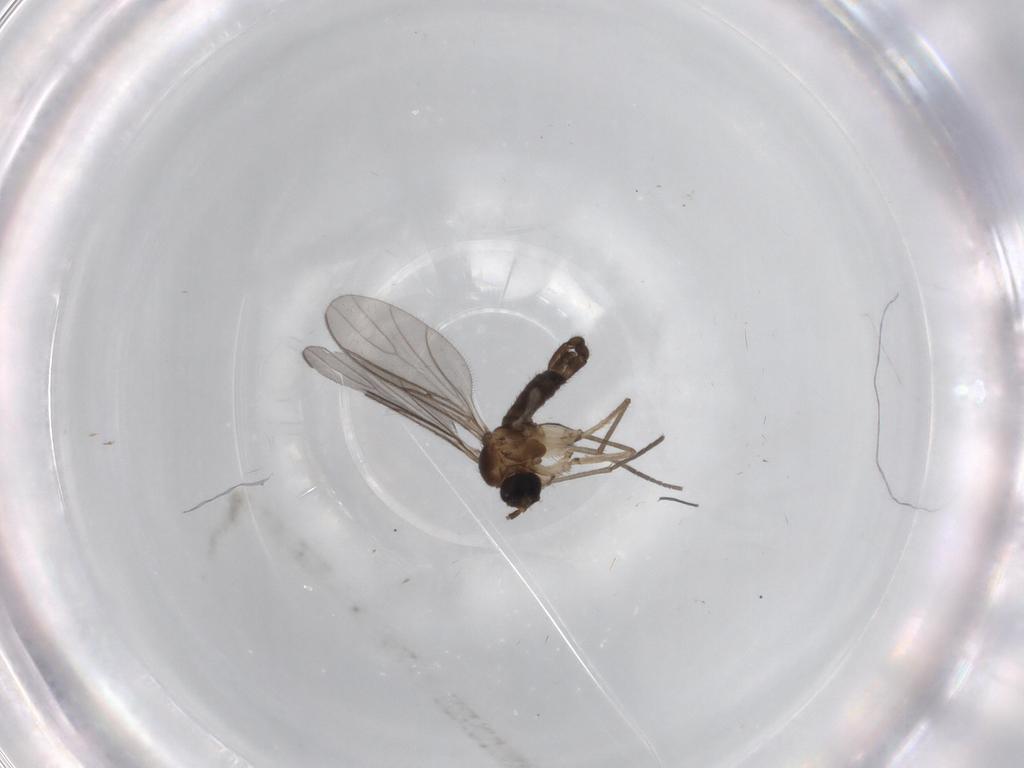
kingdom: Animalia
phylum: Arthropoda
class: Insecta
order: Diptera
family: Sciaridae
